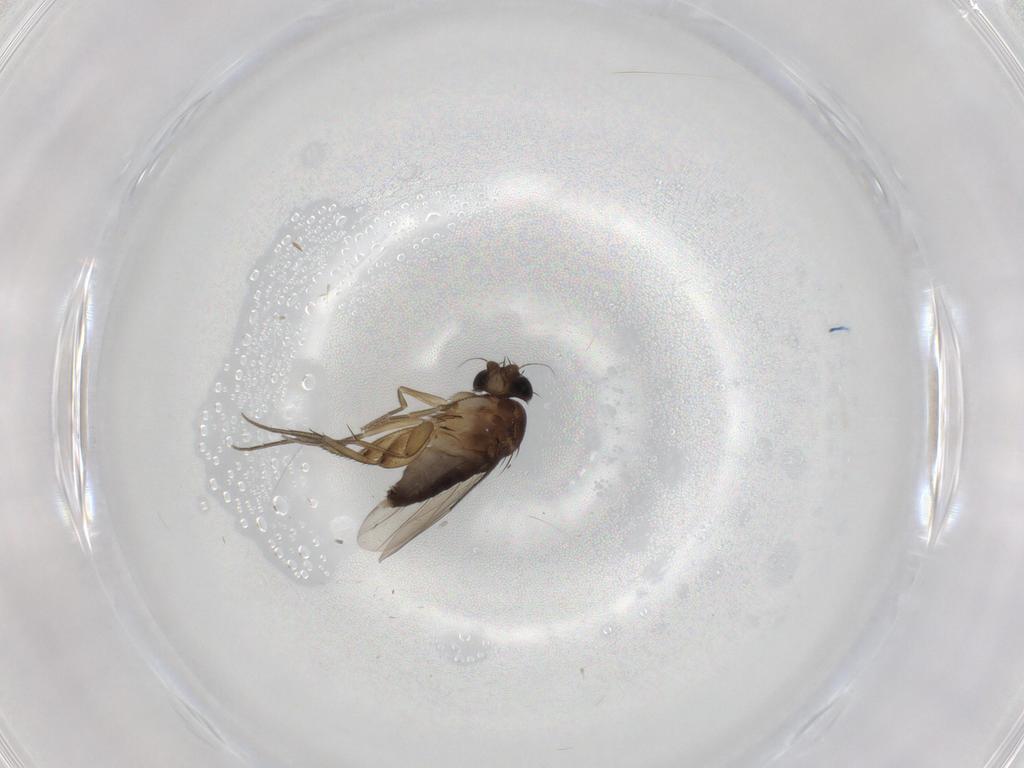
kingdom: Animalia
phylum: Arthropoda
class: Insecta
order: Diptera
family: Phoridae
